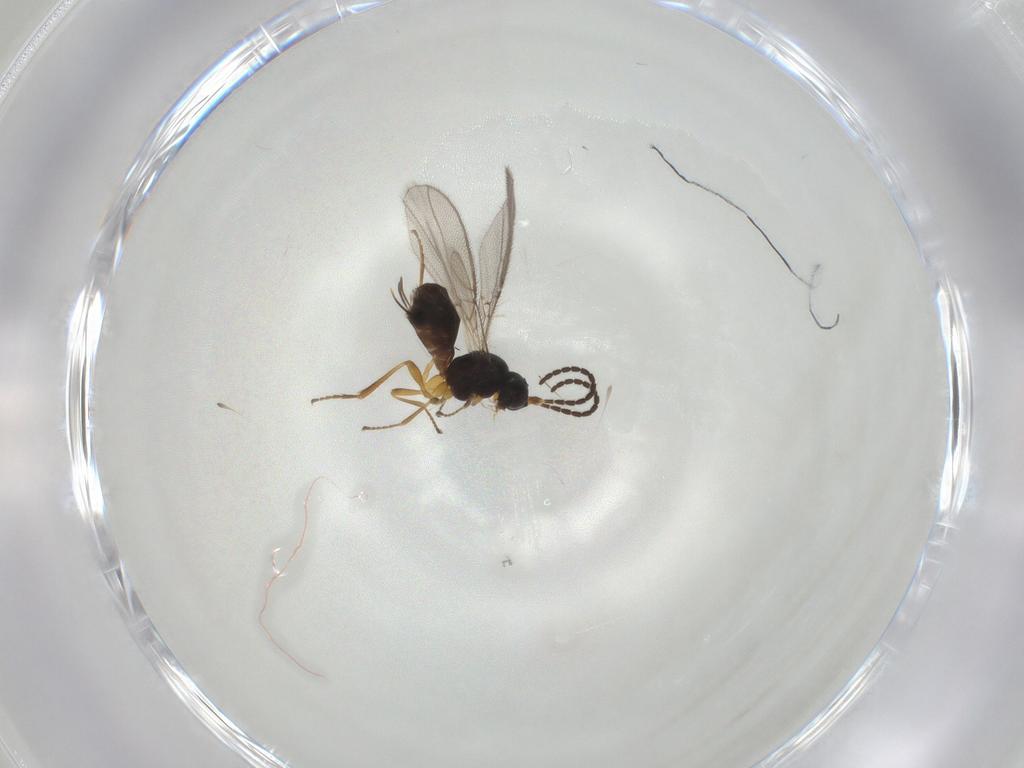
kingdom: Animalia
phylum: Arthropoda
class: Insecta
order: Hymenoptera
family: Braconidae
